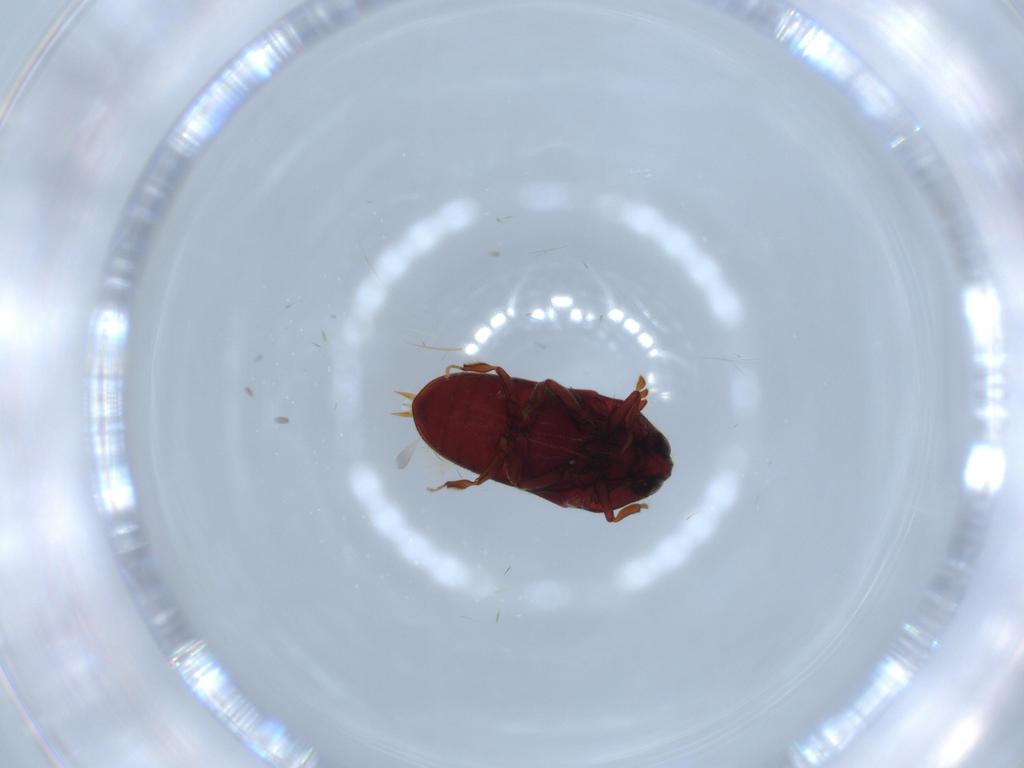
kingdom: Animalia
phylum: Arthropoda
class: Insecta
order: Coleoptera
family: Throscidae
